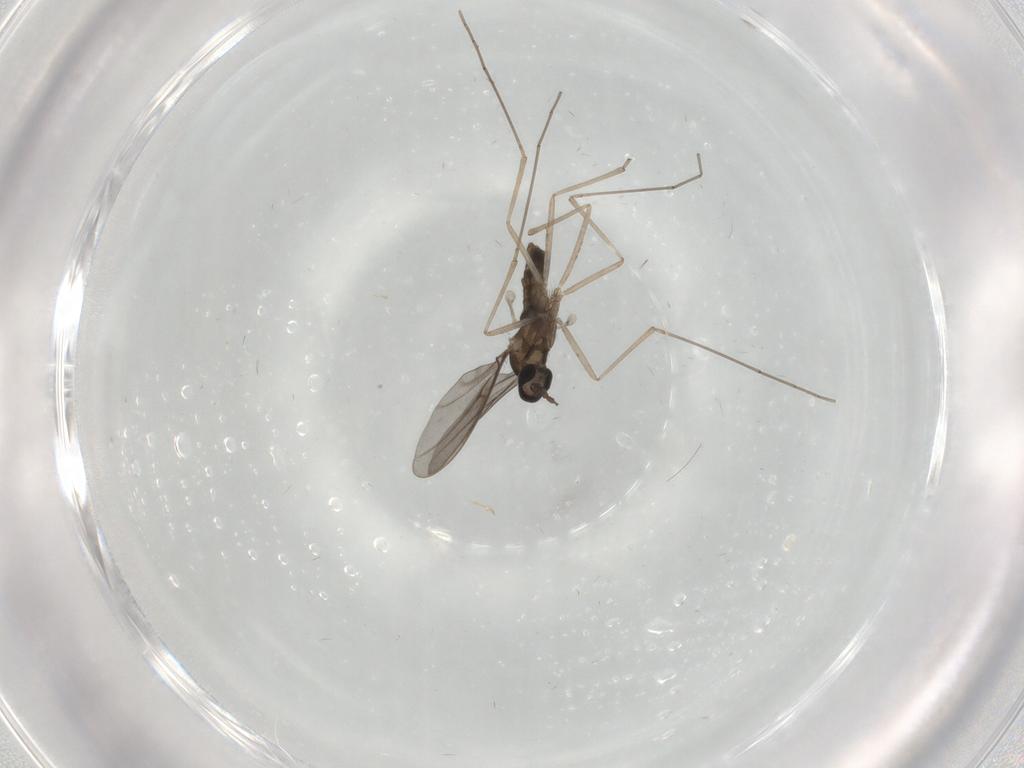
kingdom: Animalia
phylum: Arthropoda
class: Insecta
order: Diptera
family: Cecidomyiidae
